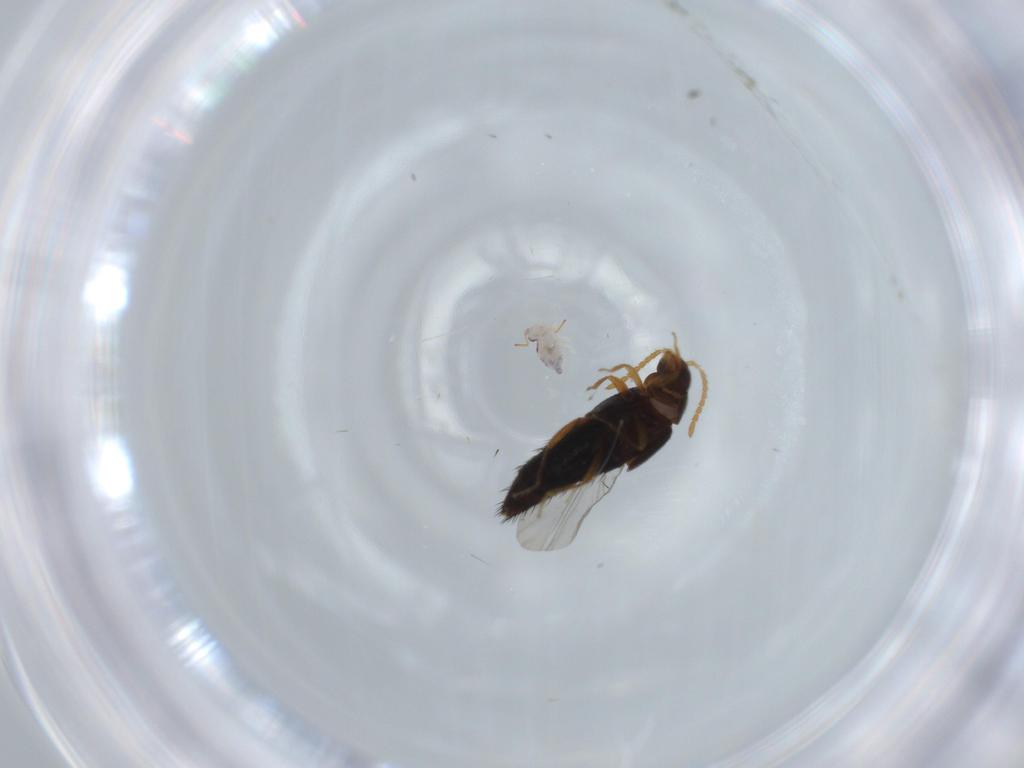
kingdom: Animalia
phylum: Arthropoda
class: Insecta
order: Coleoptera
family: Staphylinidae
